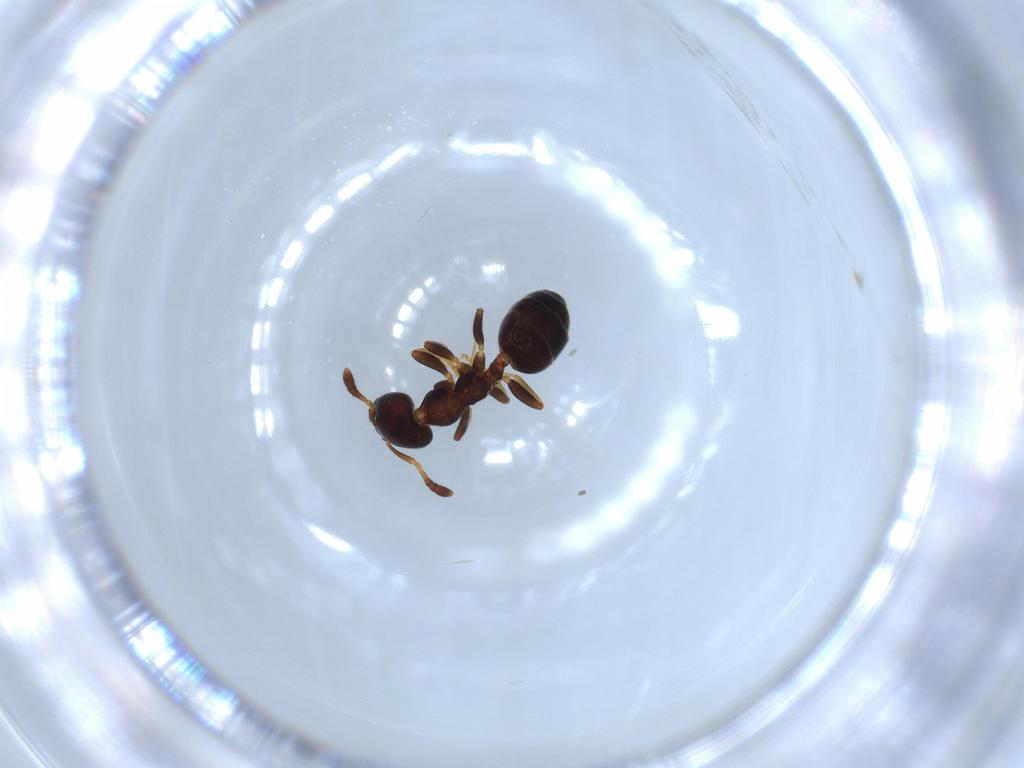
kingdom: Animalia
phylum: Arthropoda
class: Insecta
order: Hymenoptera
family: Formicidae
